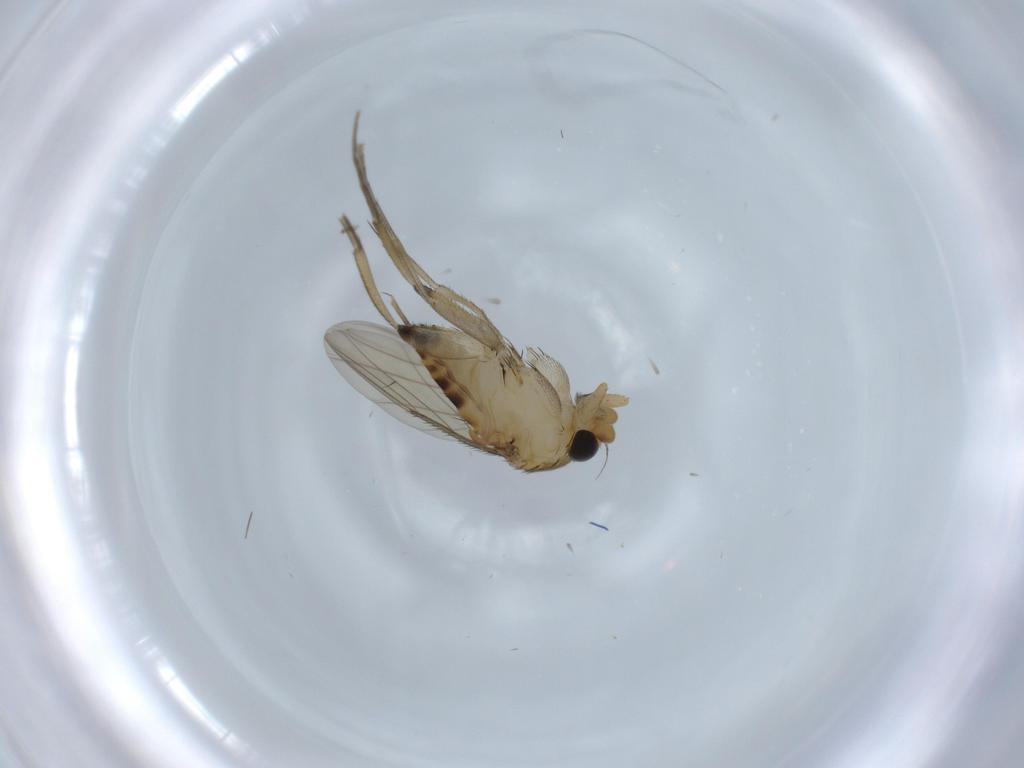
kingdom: Animalia
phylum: Arthropoda
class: Insecta
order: Diptera
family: Phoridae
